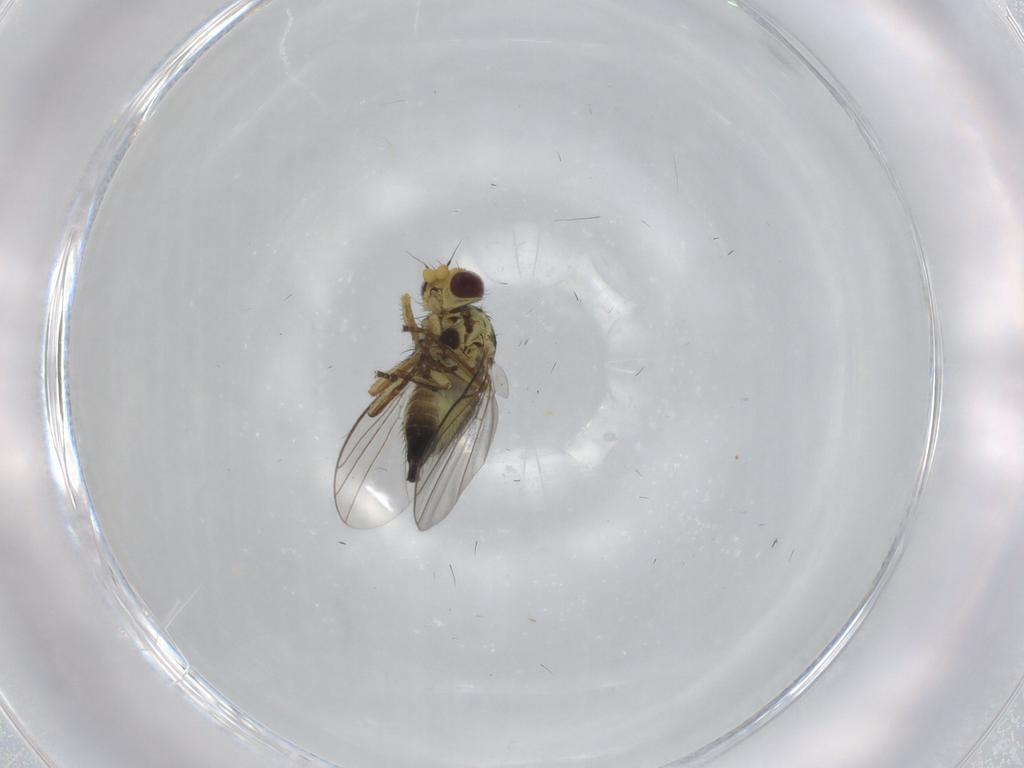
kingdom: Animalia
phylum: Arthropoda
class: Insecta
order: Diptera
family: Agromyzidae
